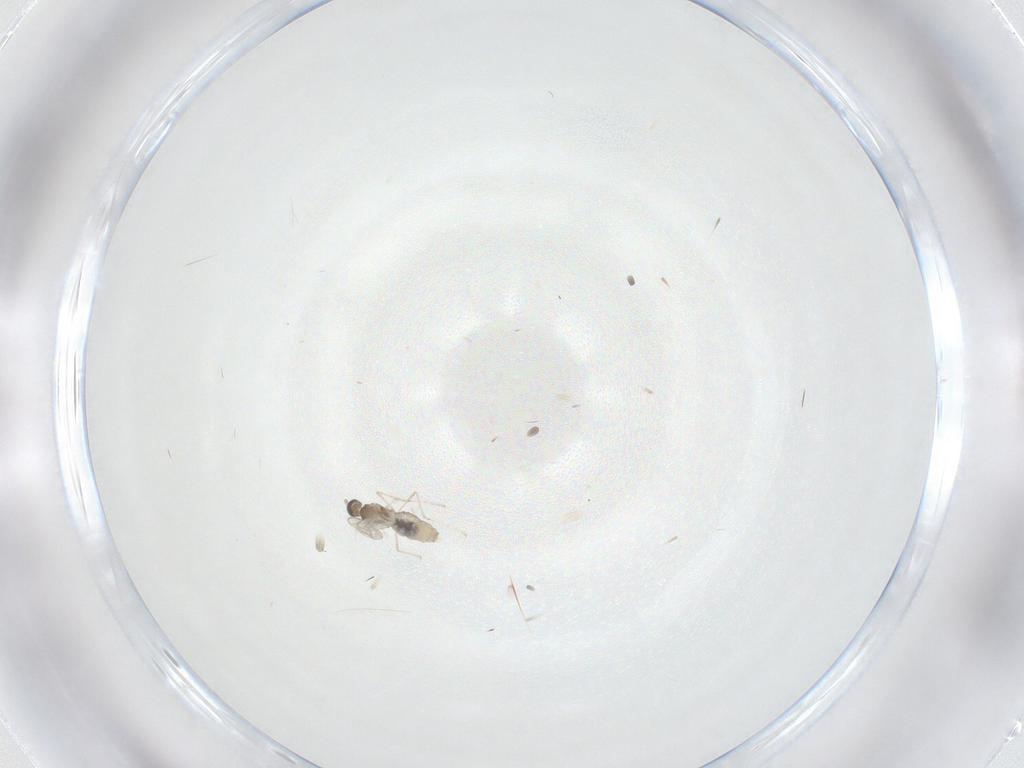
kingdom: Animalia
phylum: Arthropoda
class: Insecta
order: Diptera
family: Cecidomyiidae
